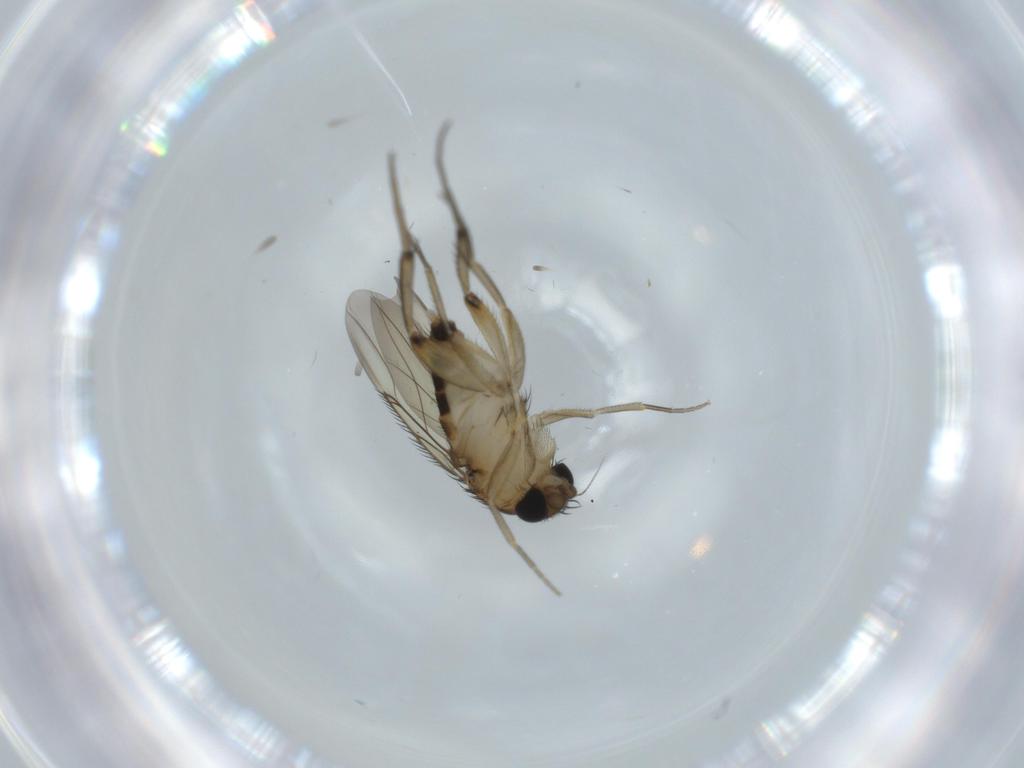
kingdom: Animalia
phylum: Arthropoda
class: Insecta
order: Diptera
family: Phoridae
